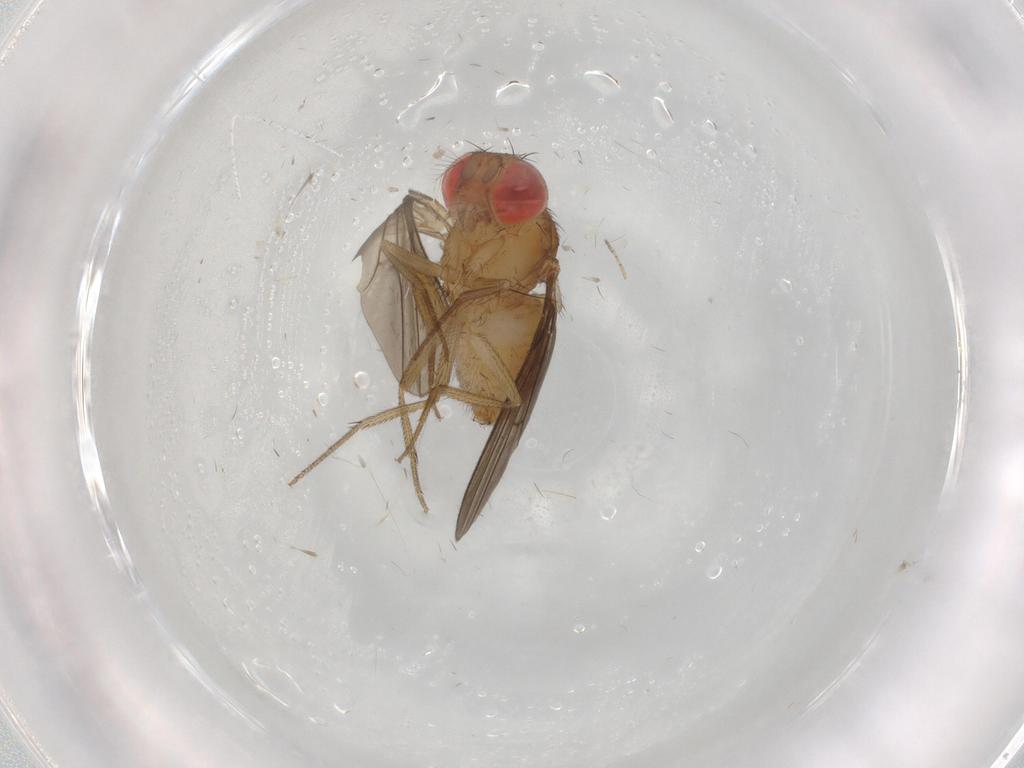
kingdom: Animalia
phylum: Arthropoda
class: Insecta
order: Diptera
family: Drosophilidae
